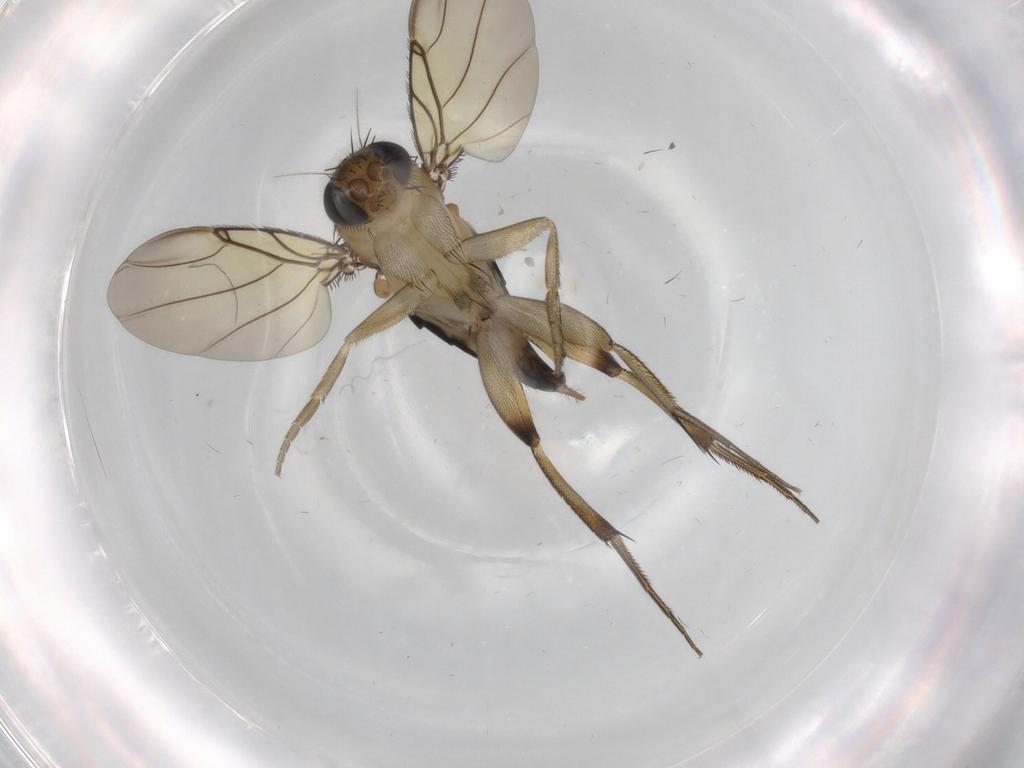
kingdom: Animalia
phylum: Arthropoda
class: Insecta
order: Diptera
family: Phoridae
